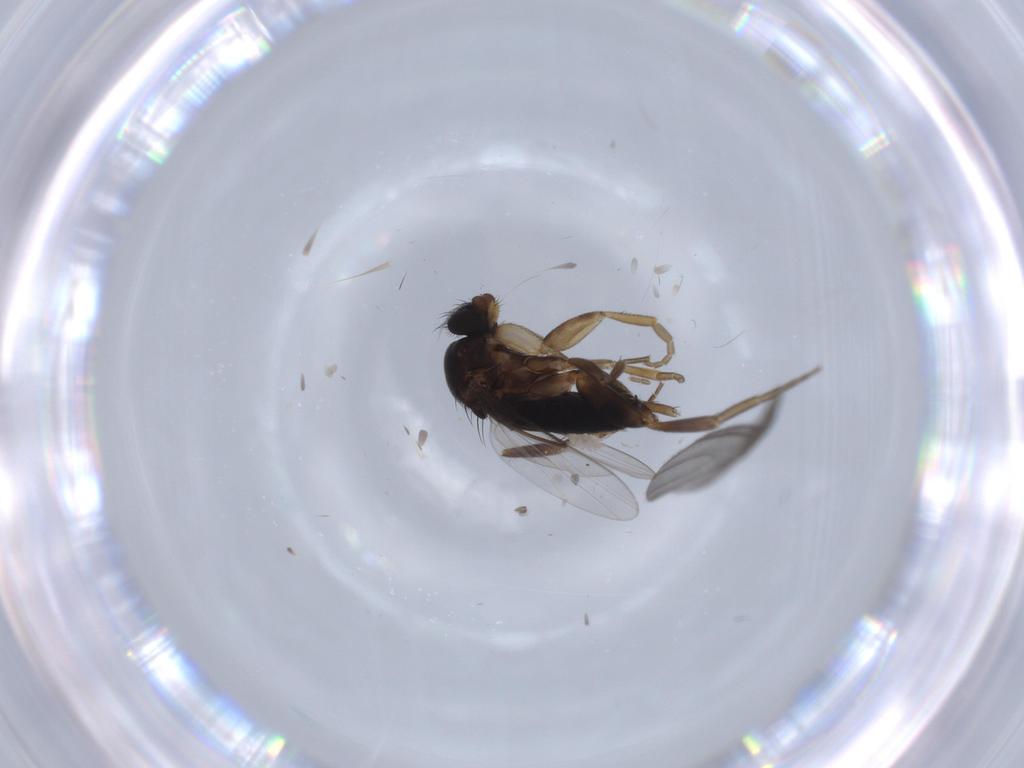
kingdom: Animalia
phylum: Arthropoda
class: Insecta
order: Diptera
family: Phoridae
